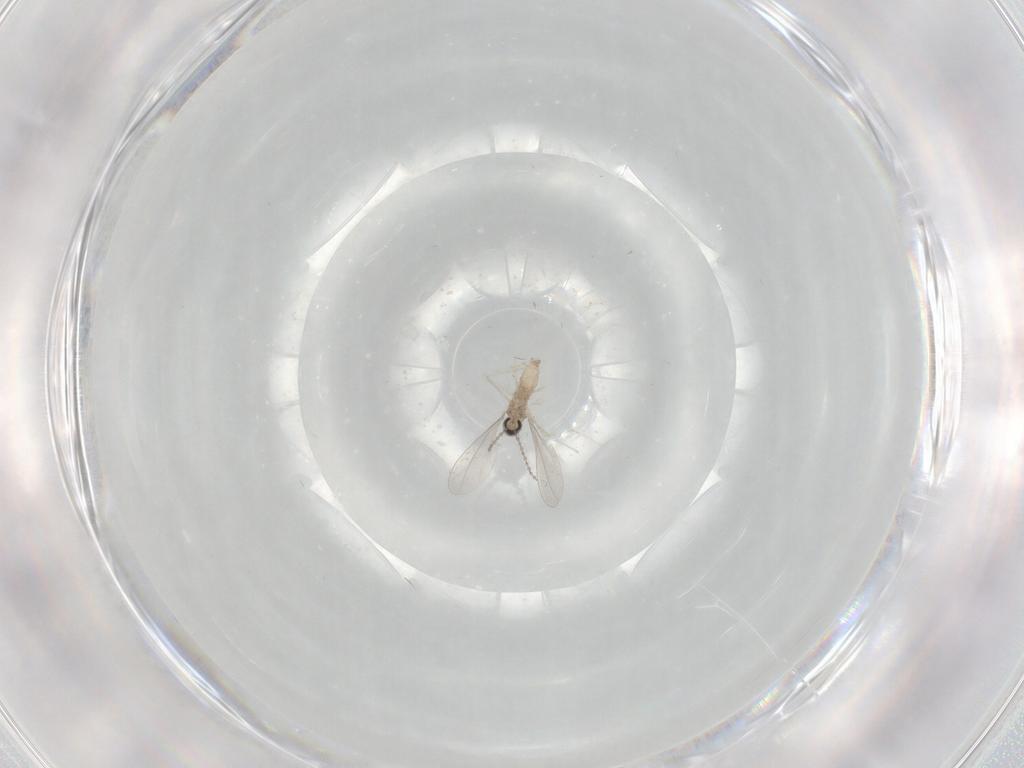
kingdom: Animalia
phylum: Arthropoda
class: Insecta
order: Diptera
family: Cecidomyiidae
